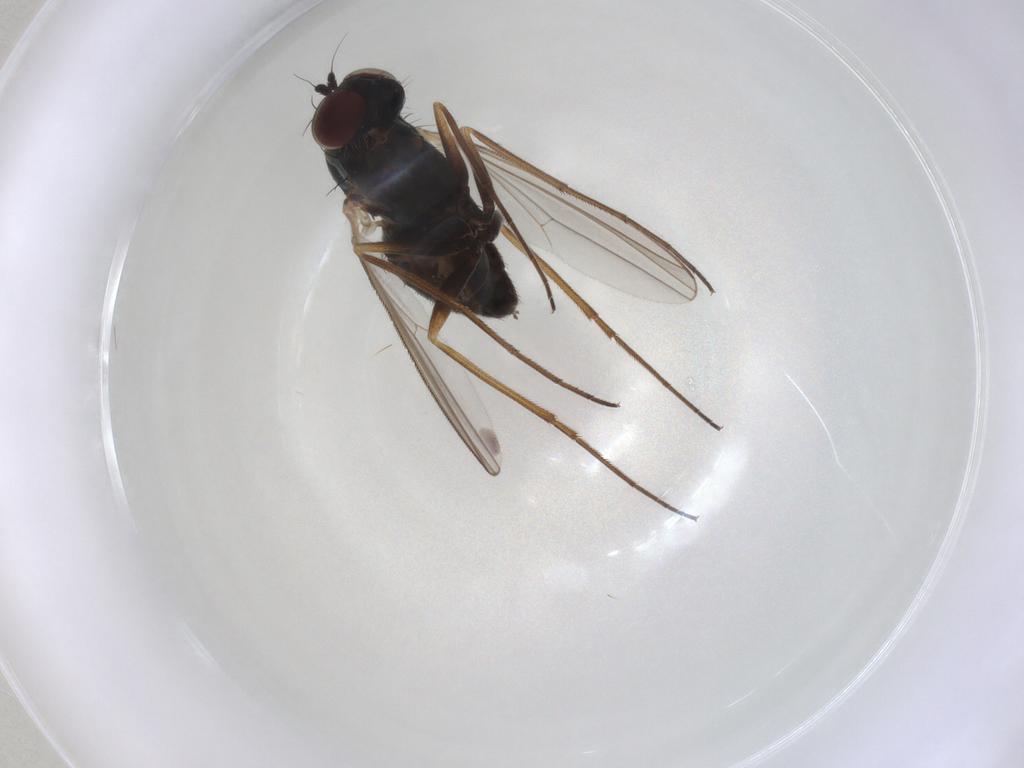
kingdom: Animalia
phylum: Arthropoda
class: Insecta
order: Diptera
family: Dolichopodidae
